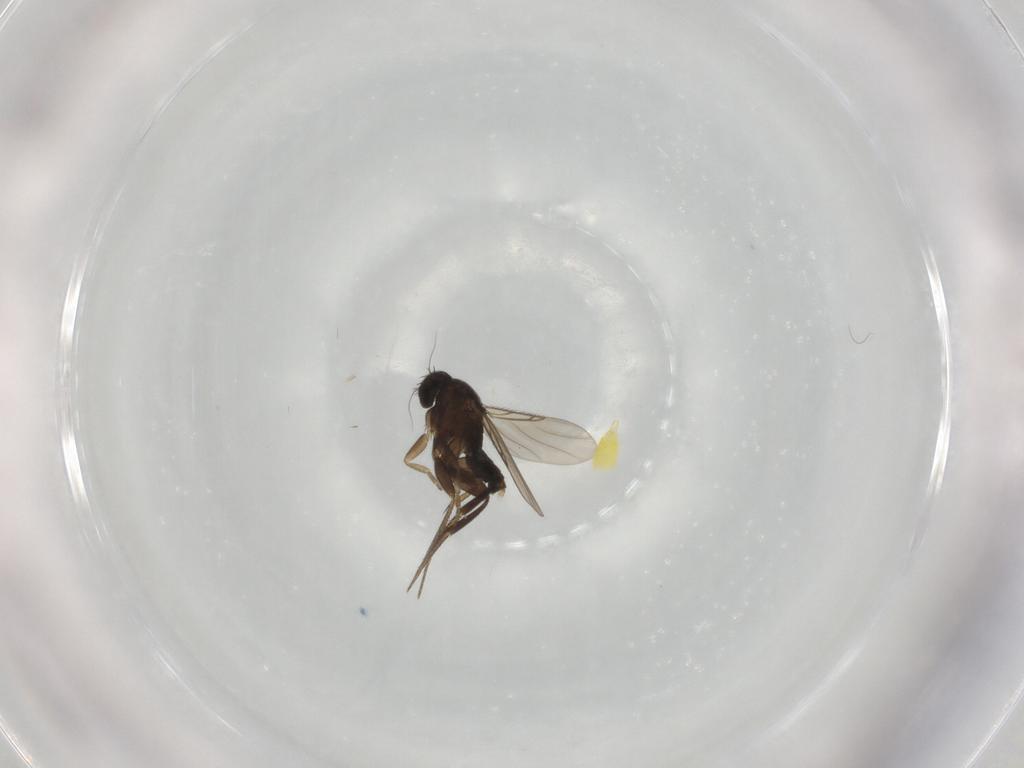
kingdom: Animalia
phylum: Arthropoda
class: Insecta
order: Diptera
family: Phoridae
